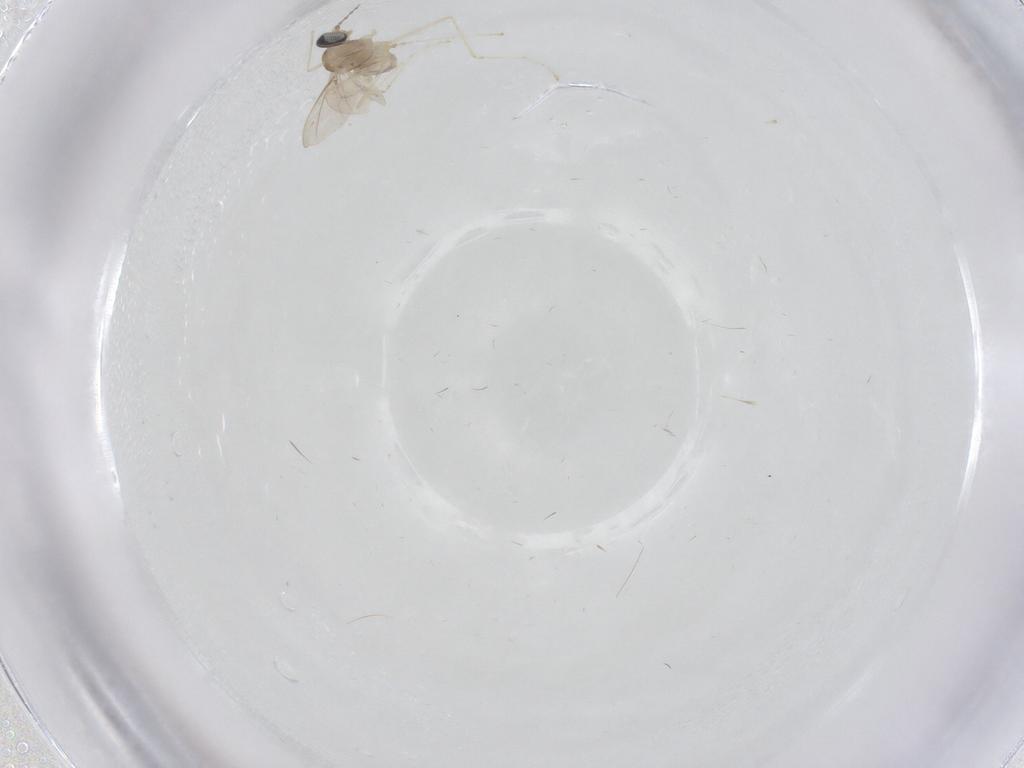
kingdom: Animalia
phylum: Arthropoda
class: Insecta
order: Diptera
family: Cecidomyiidae
